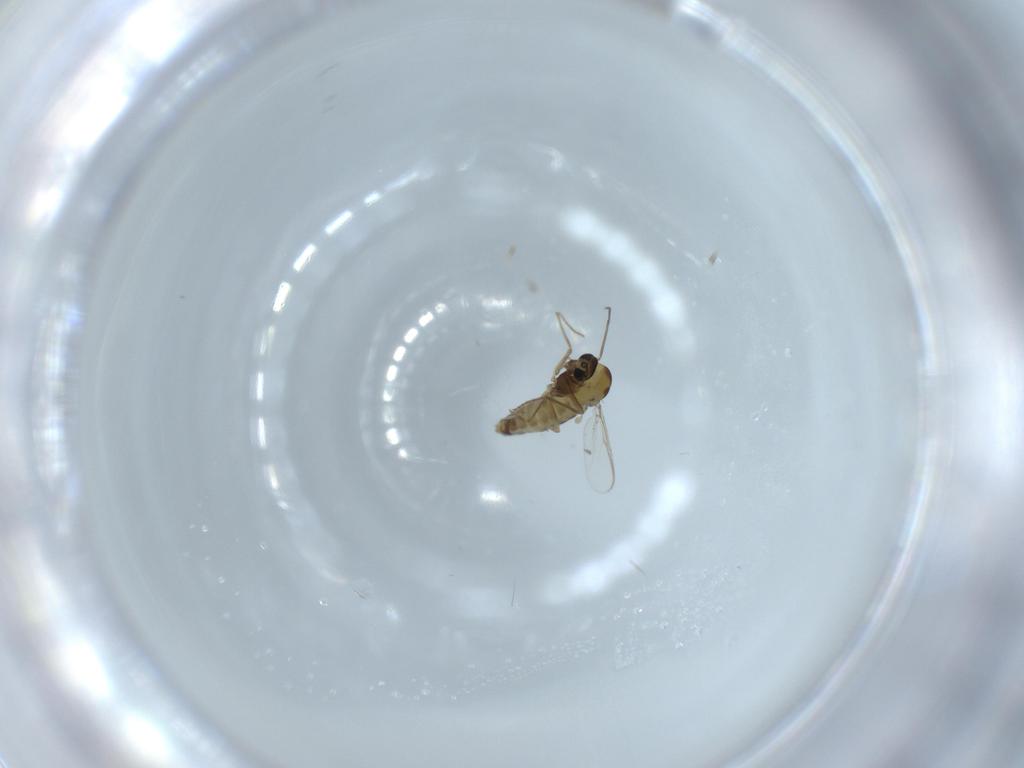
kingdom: Animalia
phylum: Arthropoda
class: Insecta
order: Diptera
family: Chironomidae
